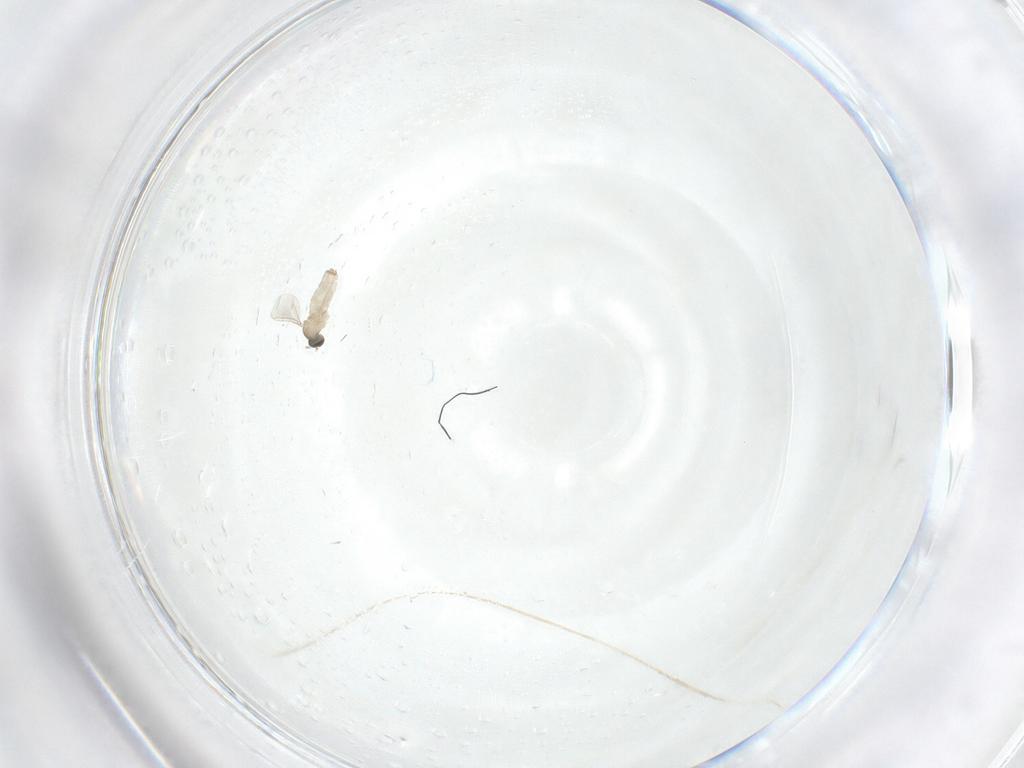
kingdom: Animalia
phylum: Arthropoda
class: Insecta
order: Diptera
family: Cecidomyiidae
